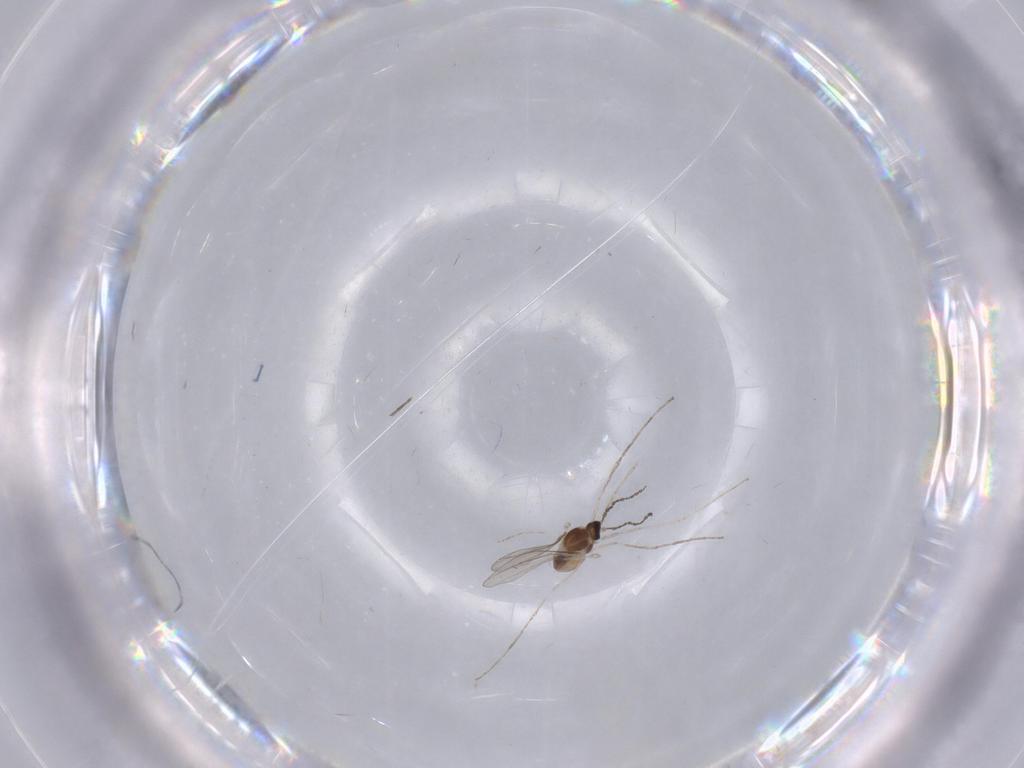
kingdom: Animalia
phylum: Arthropoda
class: Insecta
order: Diptera
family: Cecidomyiidae
